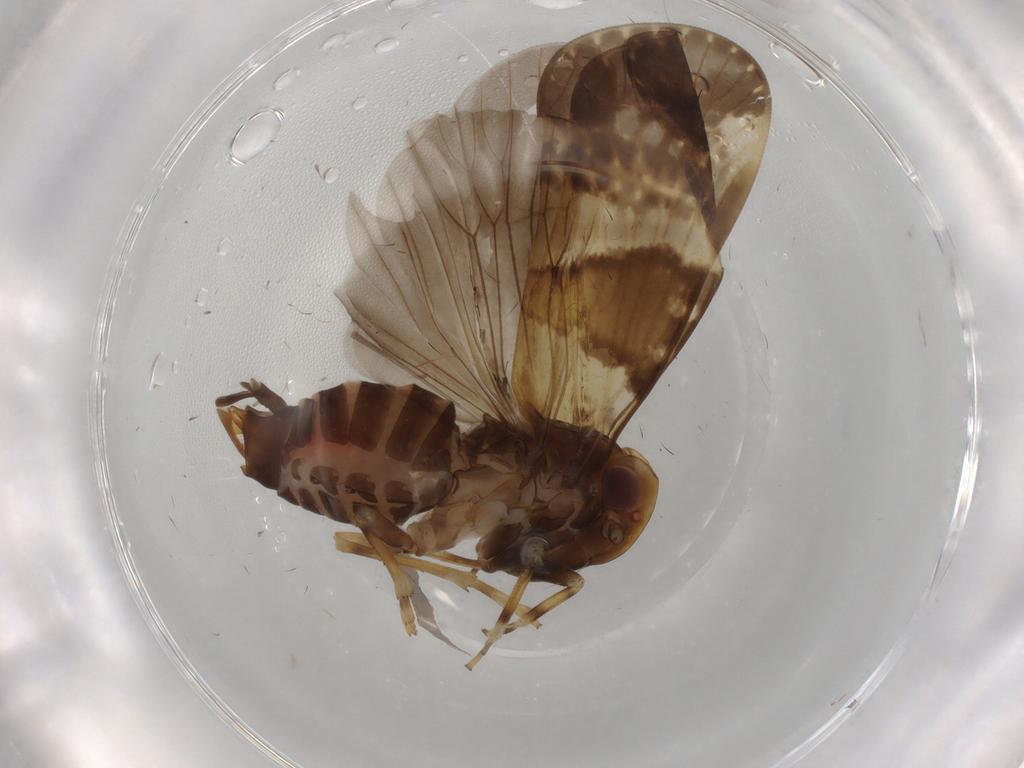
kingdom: Animalia
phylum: Arthropoda
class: Insecta
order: Hemiptera
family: Cixiidae
